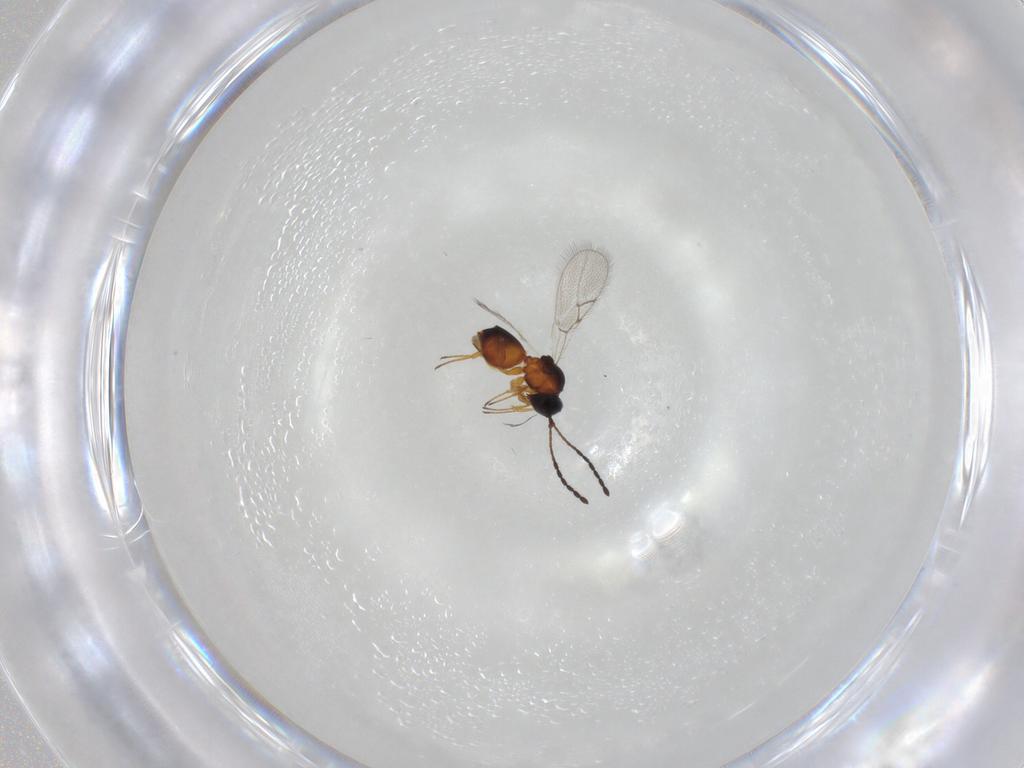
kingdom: Animalia
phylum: Arthropoda
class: Insecta
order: Hymenoptera
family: Figitidae
